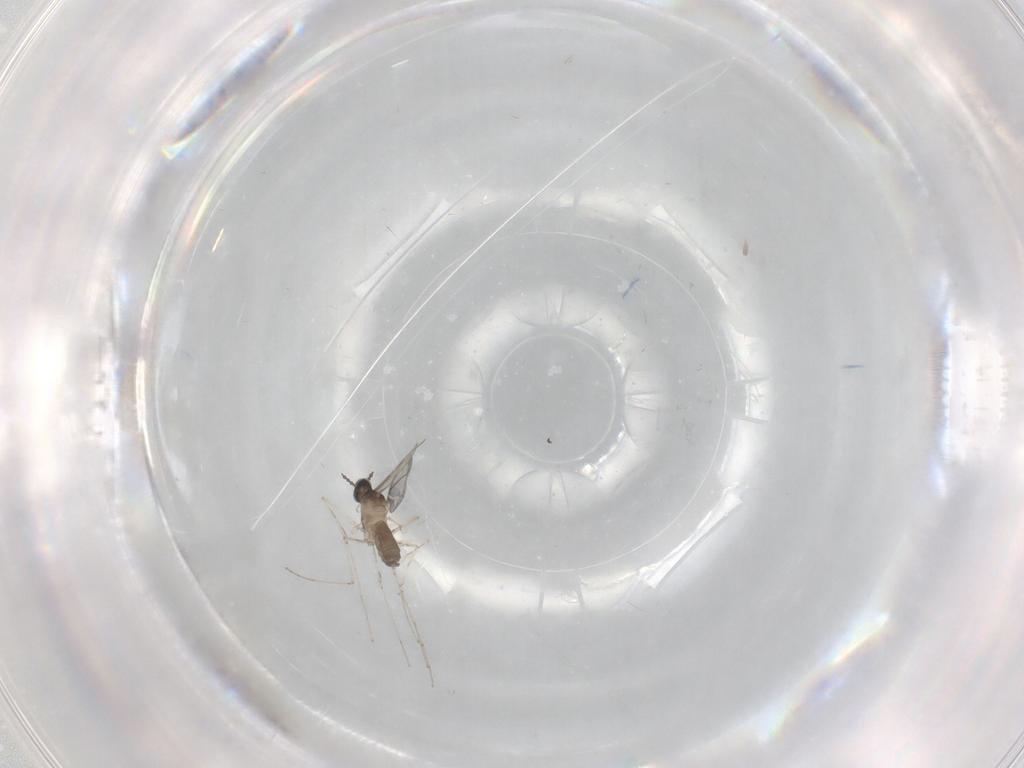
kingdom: Animalia
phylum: Arthropoda
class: Insecta
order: Diptera
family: Cecidomyiidae
